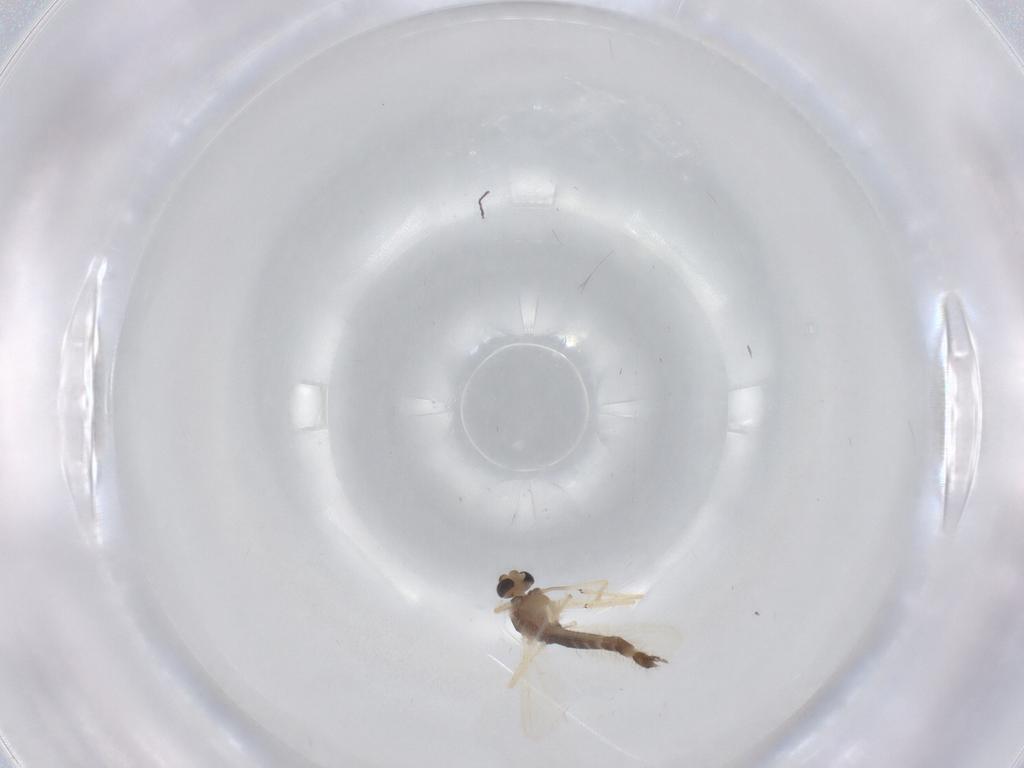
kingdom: Animalia
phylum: Arthropoda
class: Insecta
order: Diptera
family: Chironomidae
